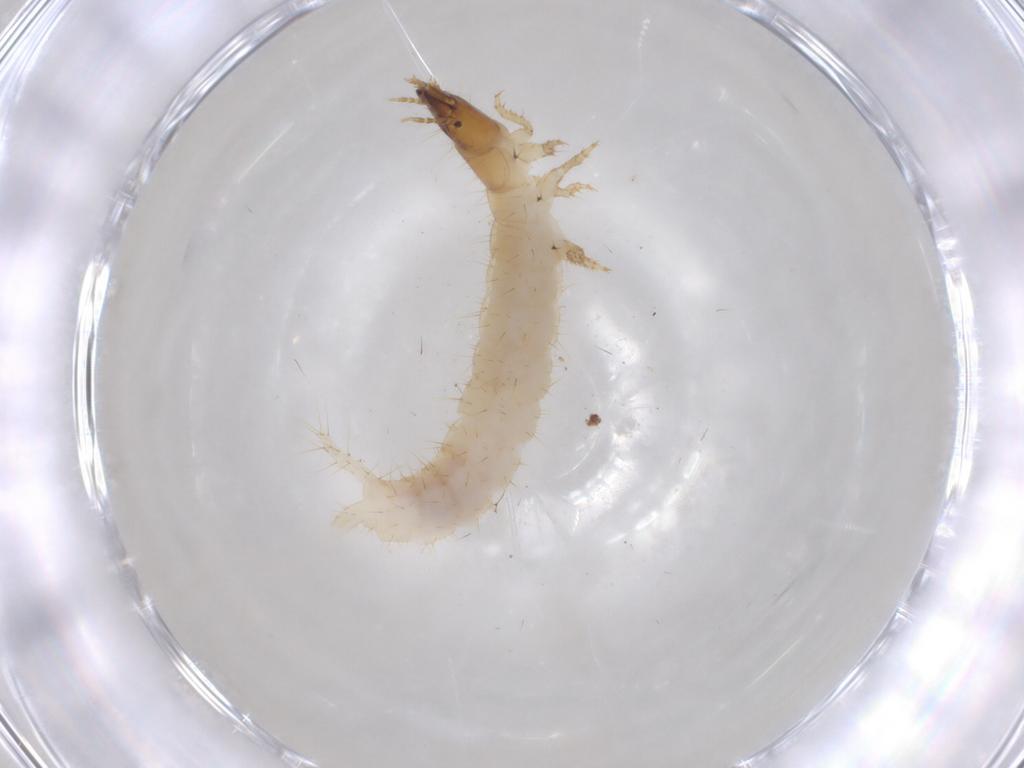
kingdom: Animalia
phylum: Arthropoda
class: Insecta
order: Coleoptera
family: Carabidae
